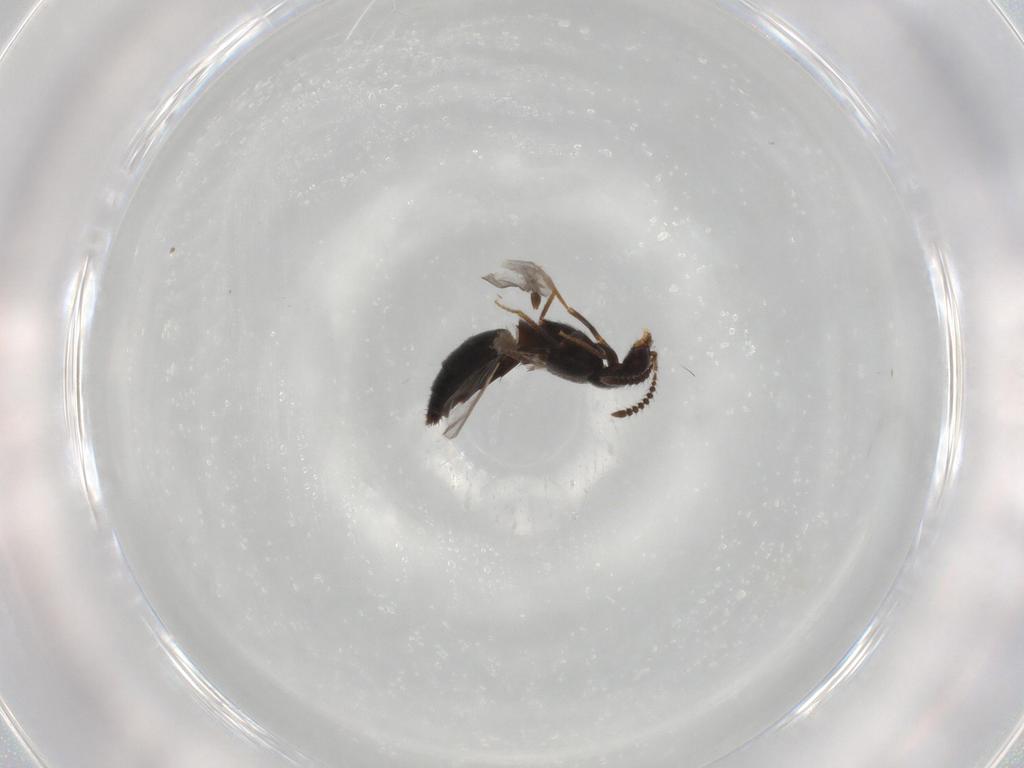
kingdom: Animalia
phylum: Arthropoda
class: Insecta
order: Coleoptera
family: Staphylinidae
